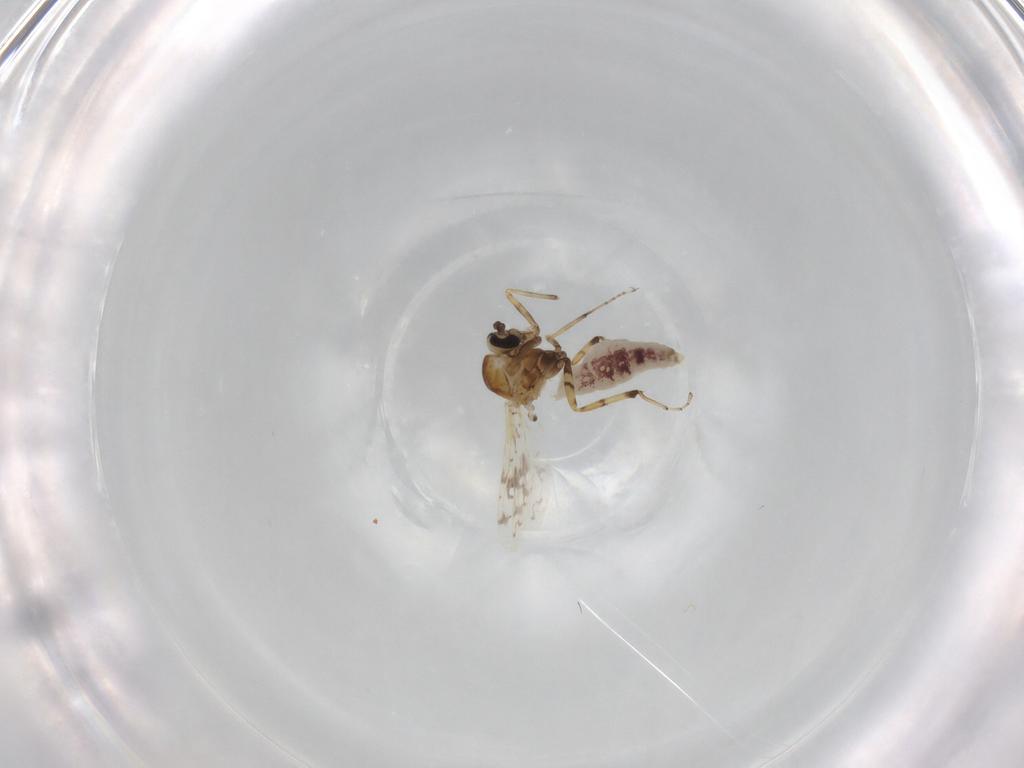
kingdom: Animalia
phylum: Arthropoda
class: Insecta
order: Diptera
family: Ceratopogonidae
